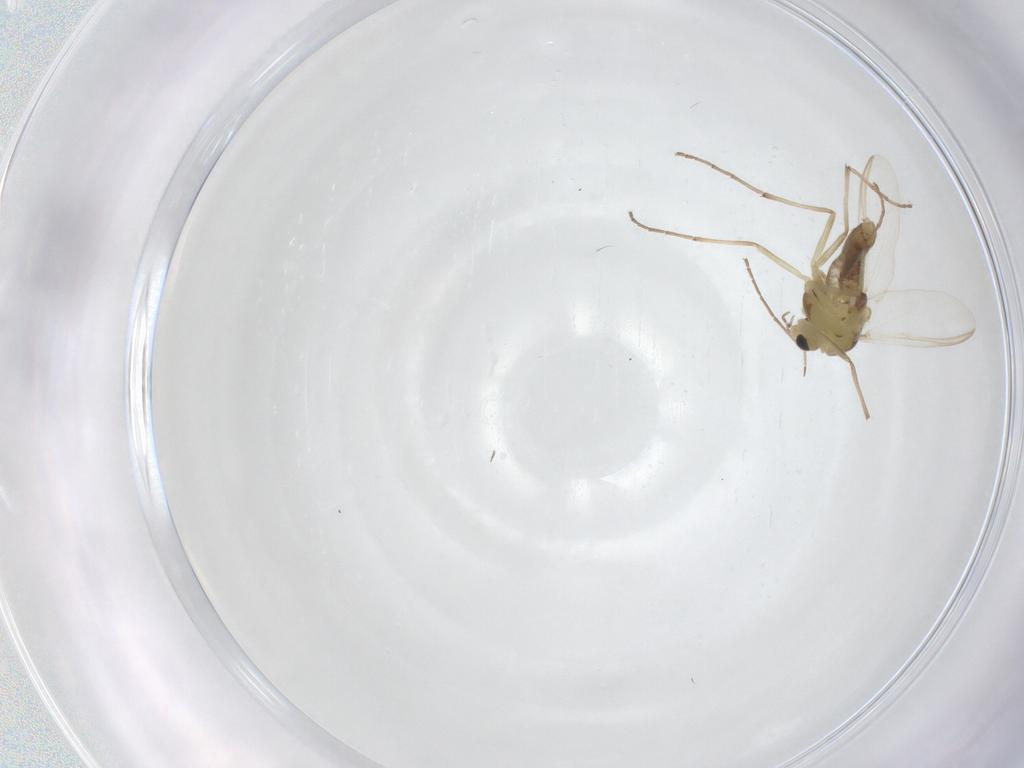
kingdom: Animalia
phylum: Arthropoda
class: Insecta
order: Diptera
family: Chironomidae
